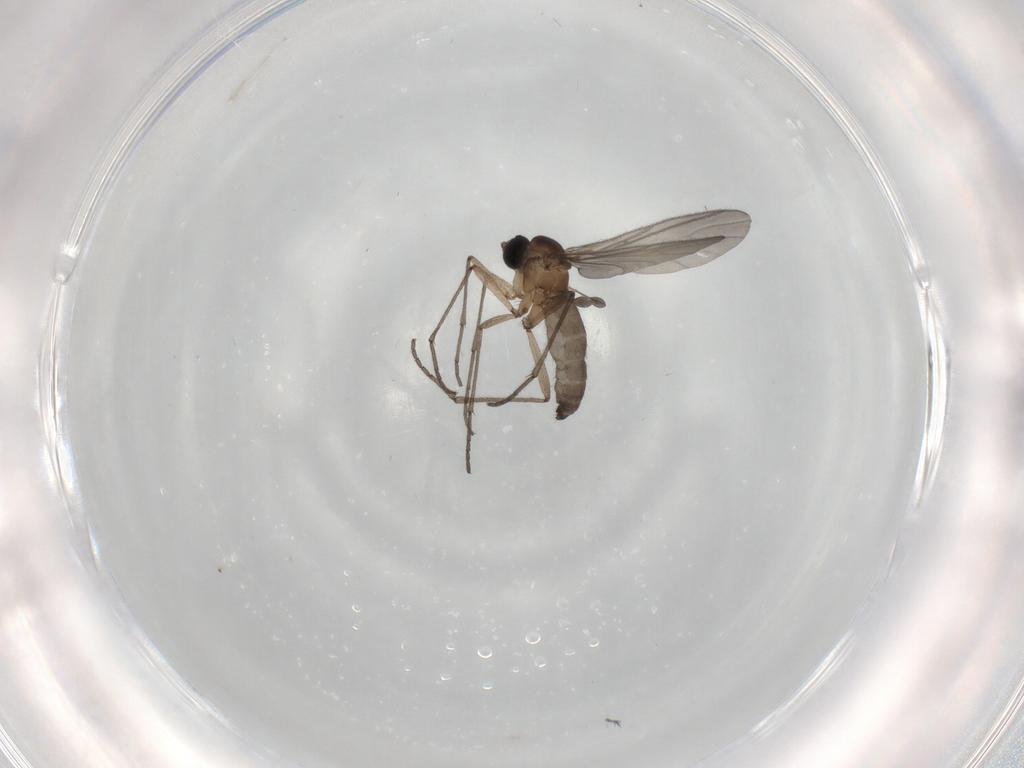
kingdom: Animalia
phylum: Arthropoda
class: Insecta
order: Diptera
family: Sciaridae
